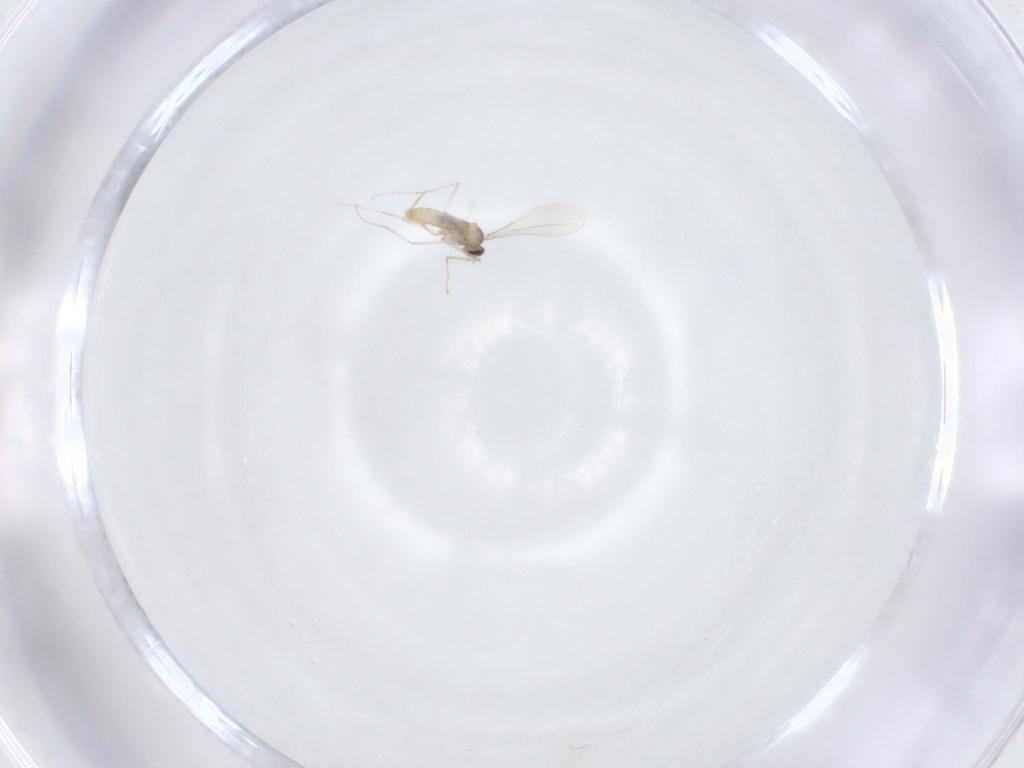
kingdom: Animalia
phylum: Arthropoda
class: Insecta
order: Diptera
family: Cecidomyiidae
